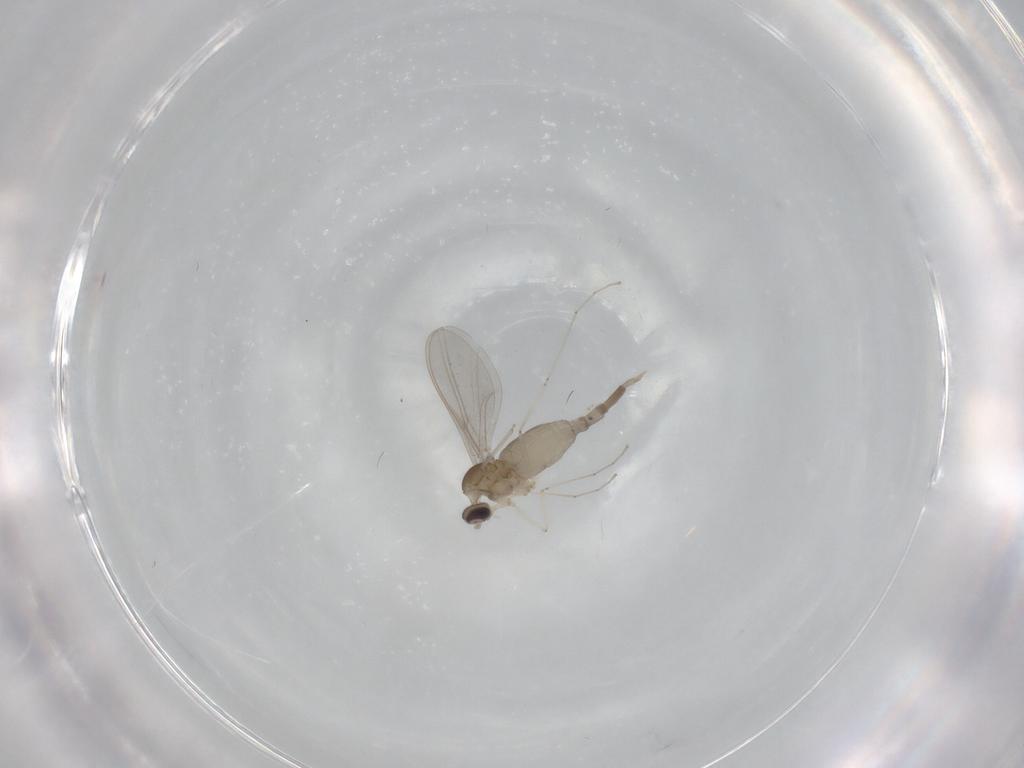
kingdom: Animalia
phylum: Arthropoda
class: Insecta
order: Diptera
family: Cecidomyiidae
